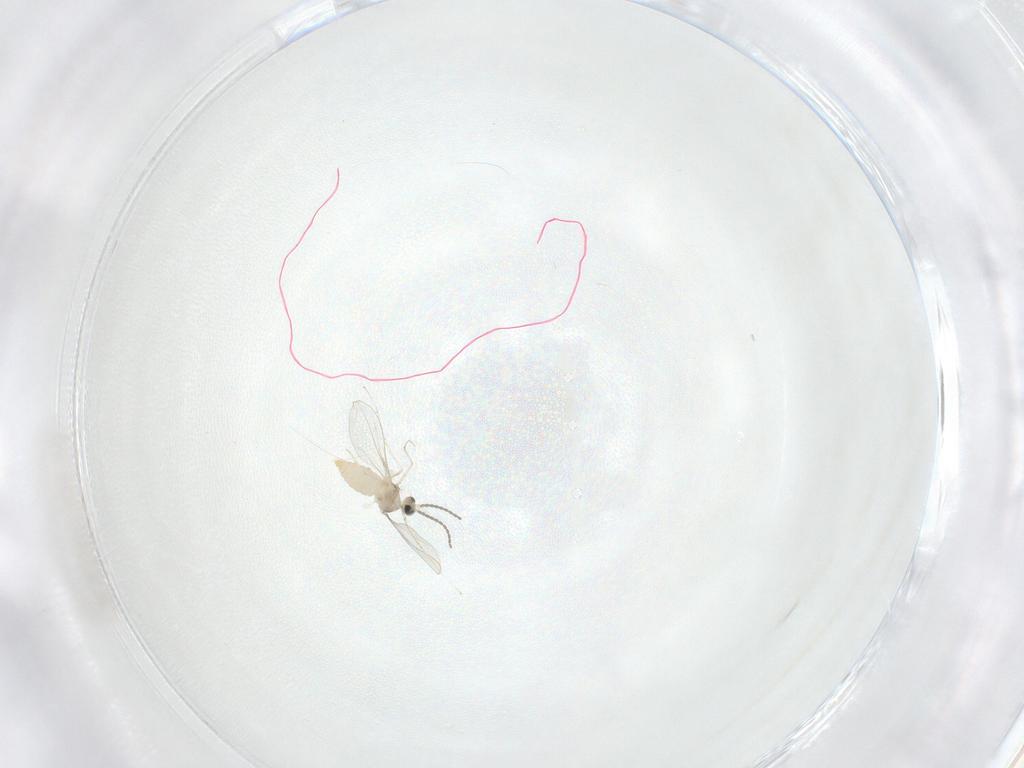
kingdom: Animalia
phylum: Arthropoda
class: Insecta
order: Diptera
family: Cecidomyiidae
